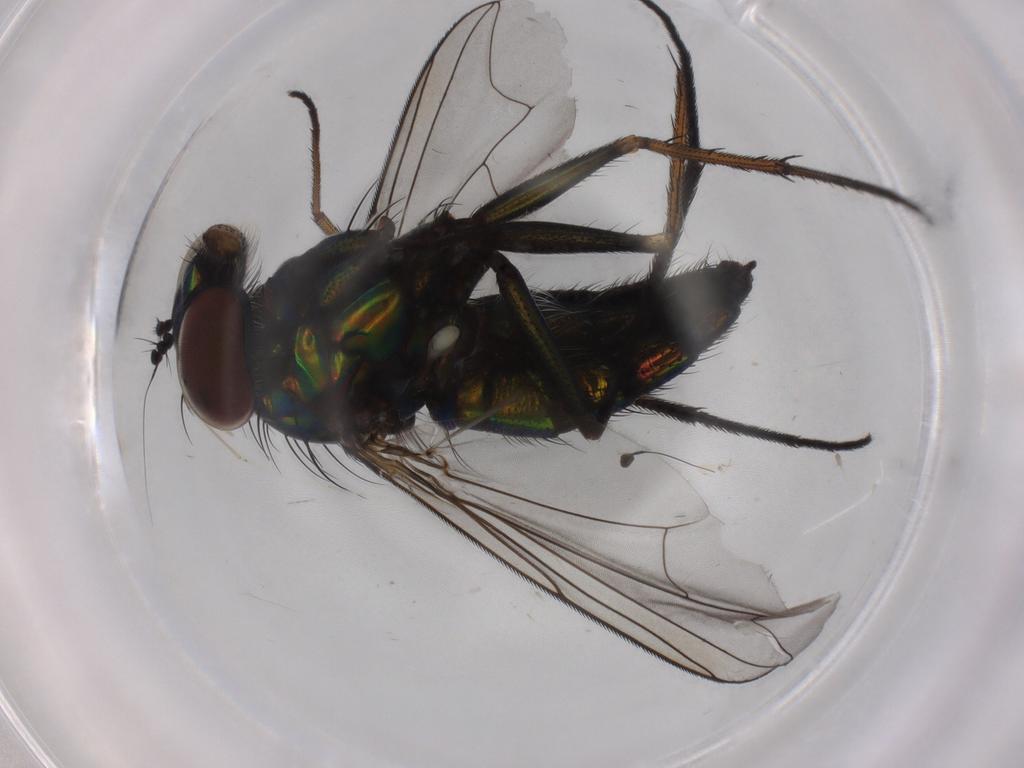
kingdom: Animalia
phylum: Arthropoda
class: Insecta
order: Diptera
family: Dolichopodidae
